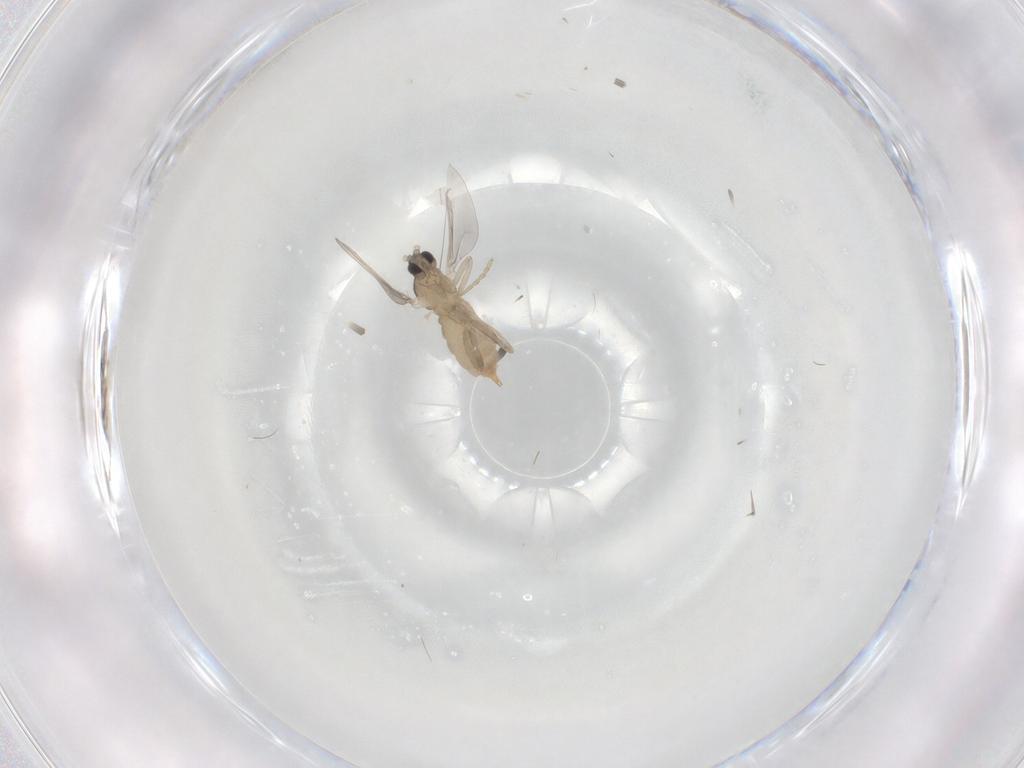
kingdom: Animalia
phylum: Arthropoda
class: Insecta
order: Diptera
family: Cecidomyiidae
